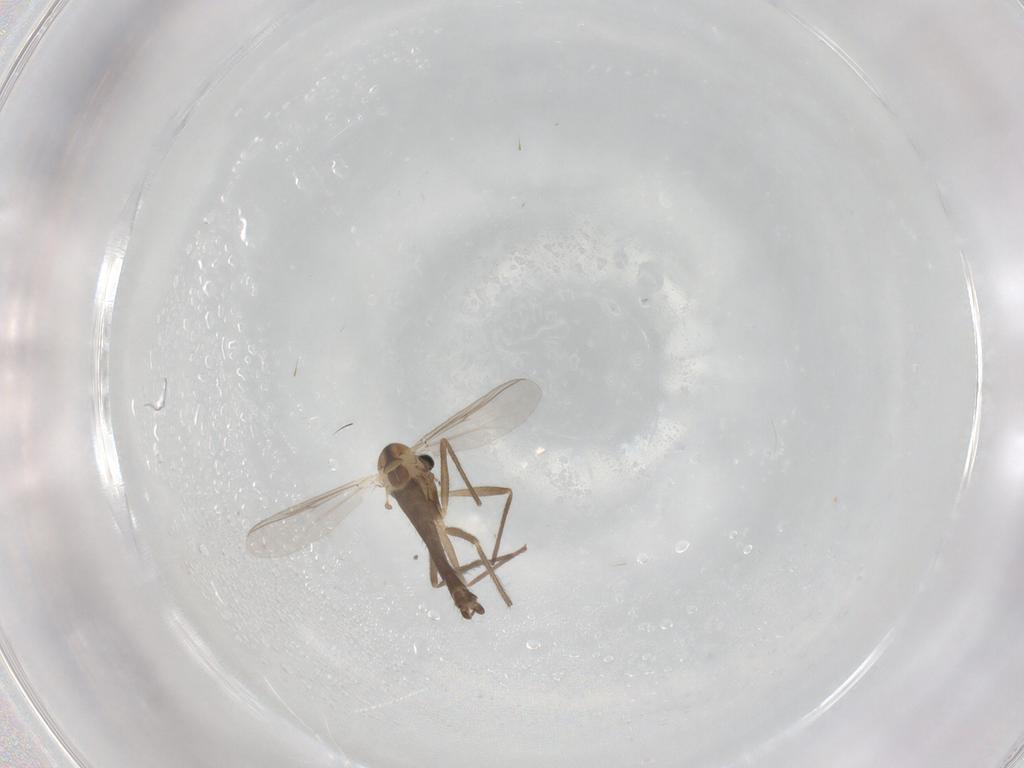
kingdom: Animalia
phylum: Arthropoda
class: Insecta
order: Diptera
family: Chironomidae
